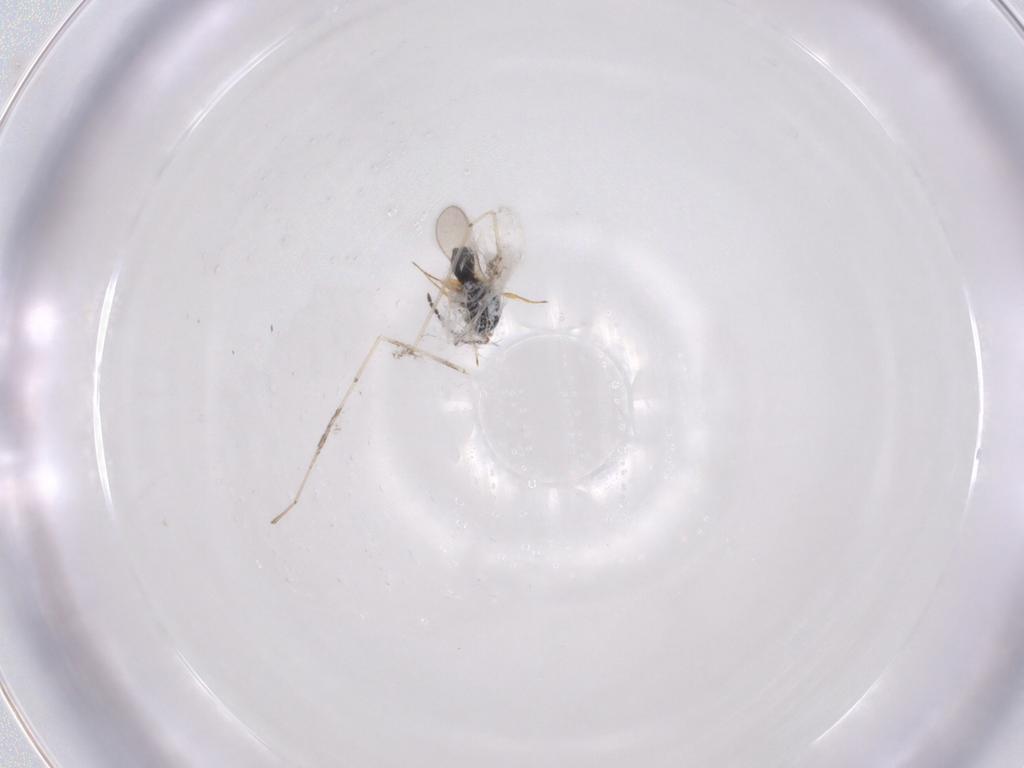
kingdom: Animalia
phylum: Arthropoda
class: Insecta
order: Hymenoptera
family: Scelionidae
